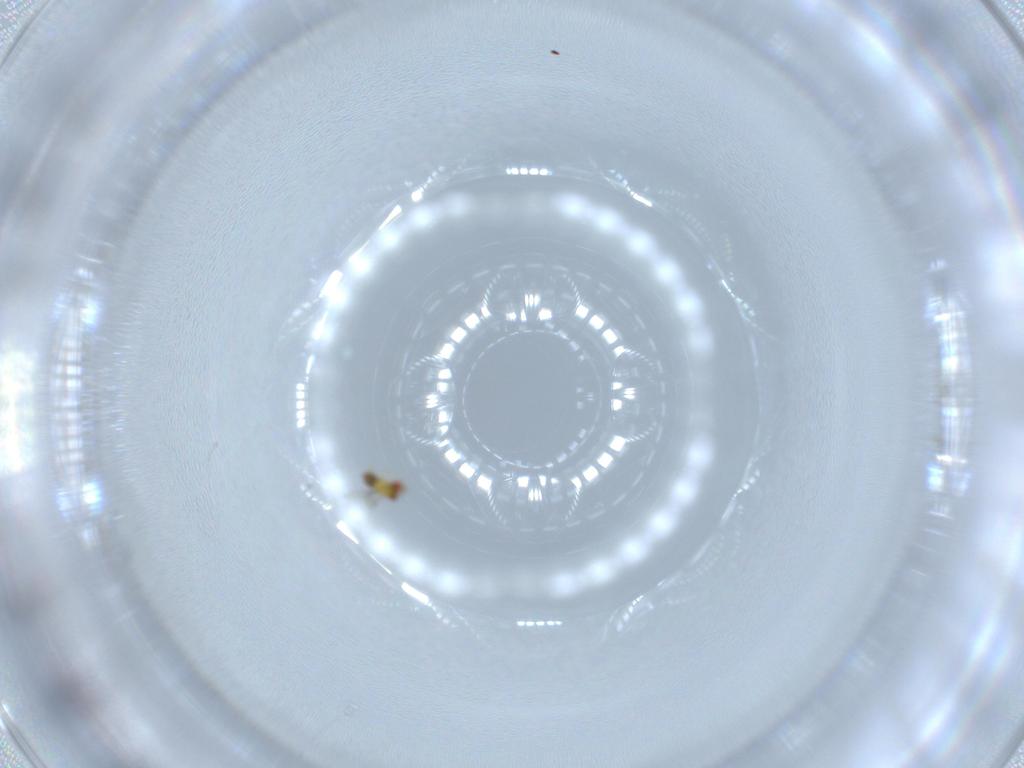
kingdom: Animalia
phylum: Arthropoda
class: Insecta
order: Hymenoptera
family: Trichogrammatidae
